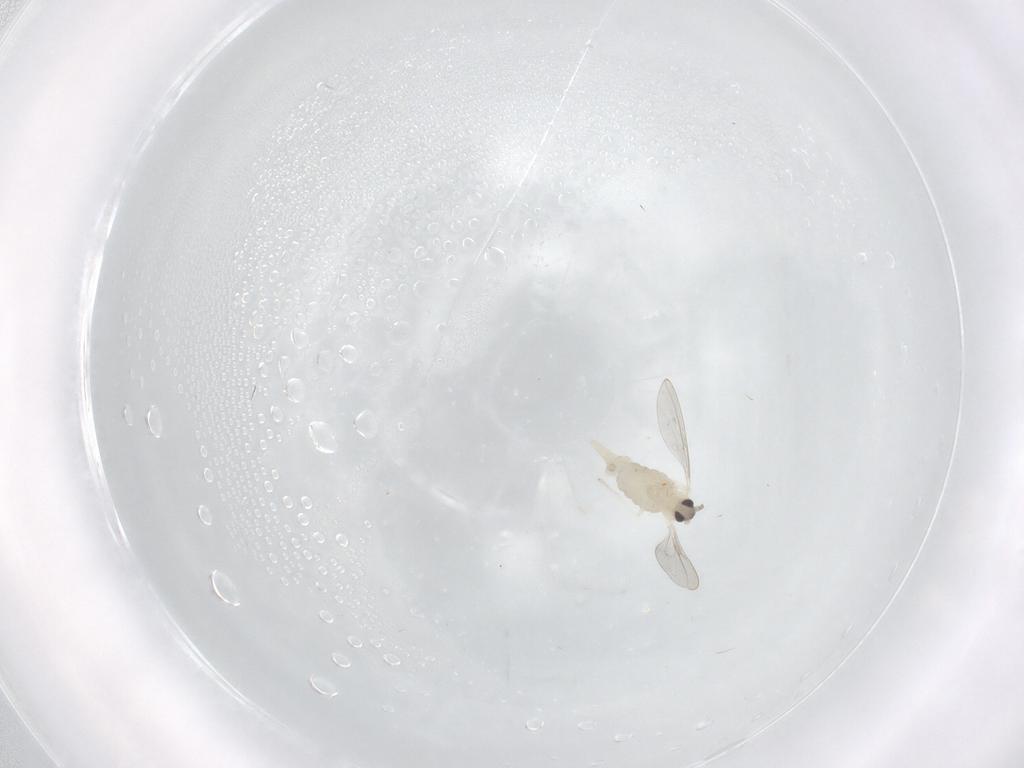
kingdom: Animalia
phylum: Arthropoda
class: Insecta
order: Diptera
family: Cecidomyiidae
